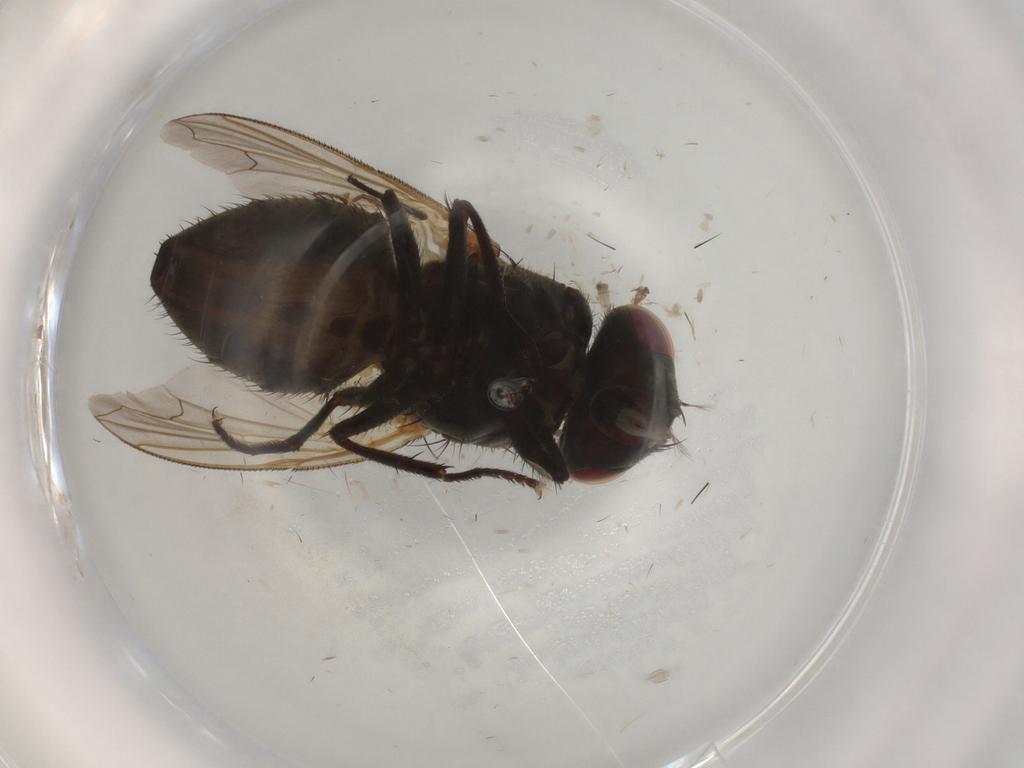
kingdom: Animalia
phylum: Arthropoda
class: Insecta
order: Diptera
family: Muscidae
